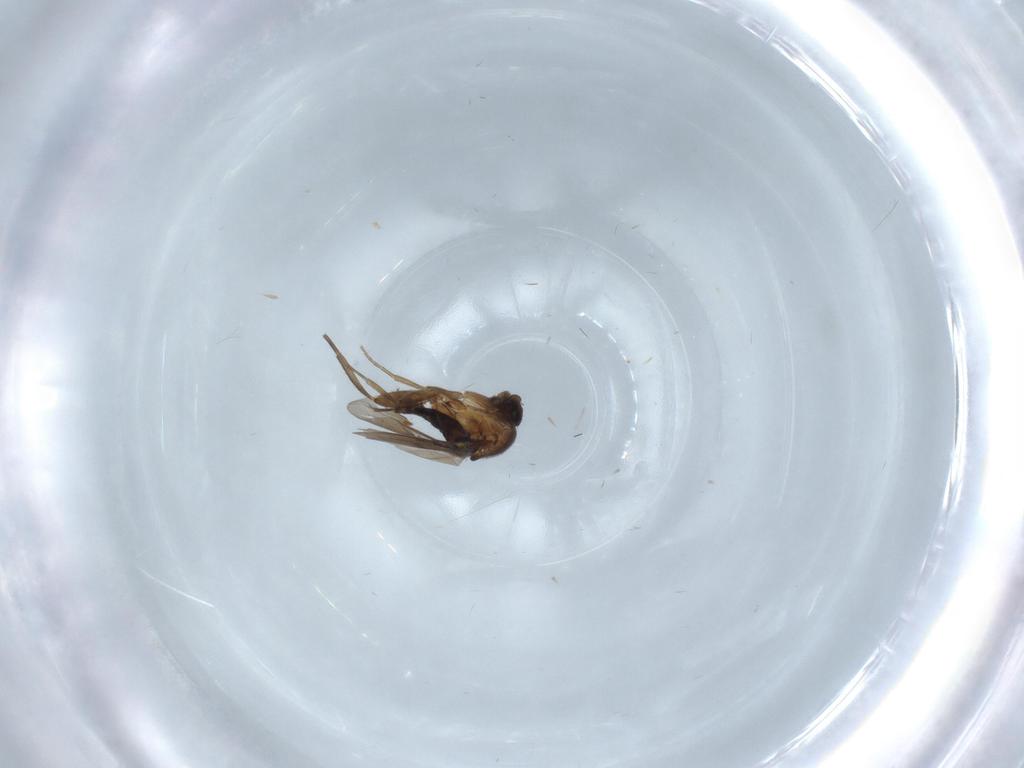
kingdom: Animalia
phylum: Arthropoda
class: Insecta
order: Diptera
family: Phoridae
